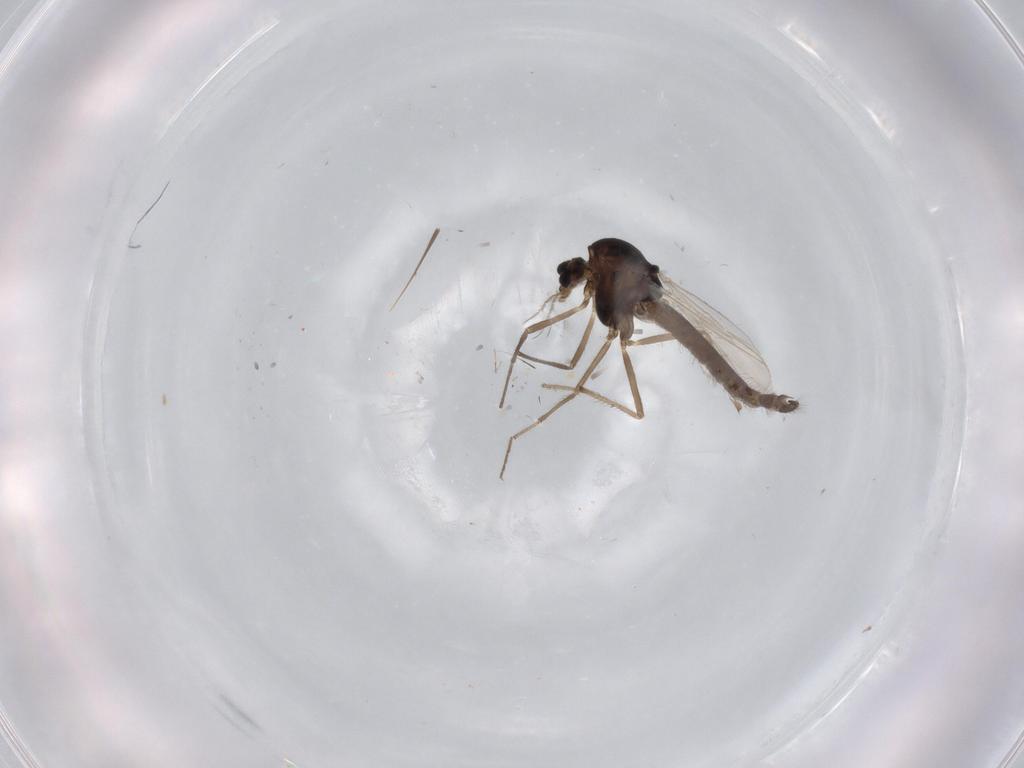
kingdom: Animalia
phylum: Arthropoda
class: Insecta
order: Diptera
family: Chironomidae
